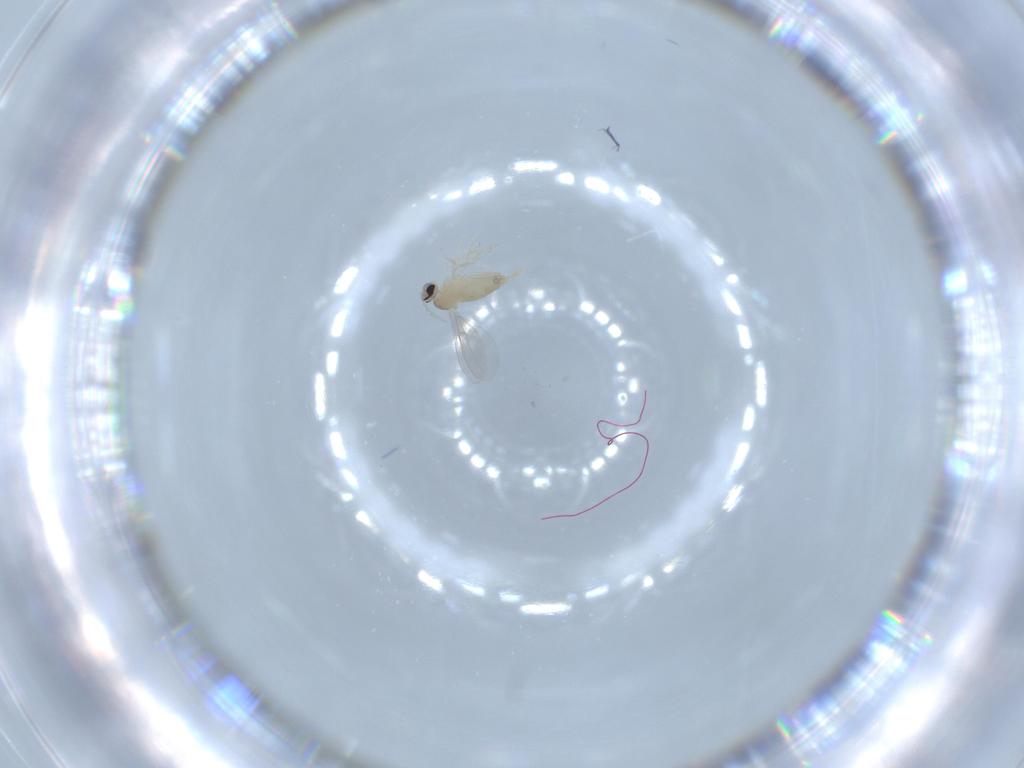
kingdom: Animalia
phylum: Arthropoda
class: Insecta
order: Diptera
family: Cecidomyiidae
